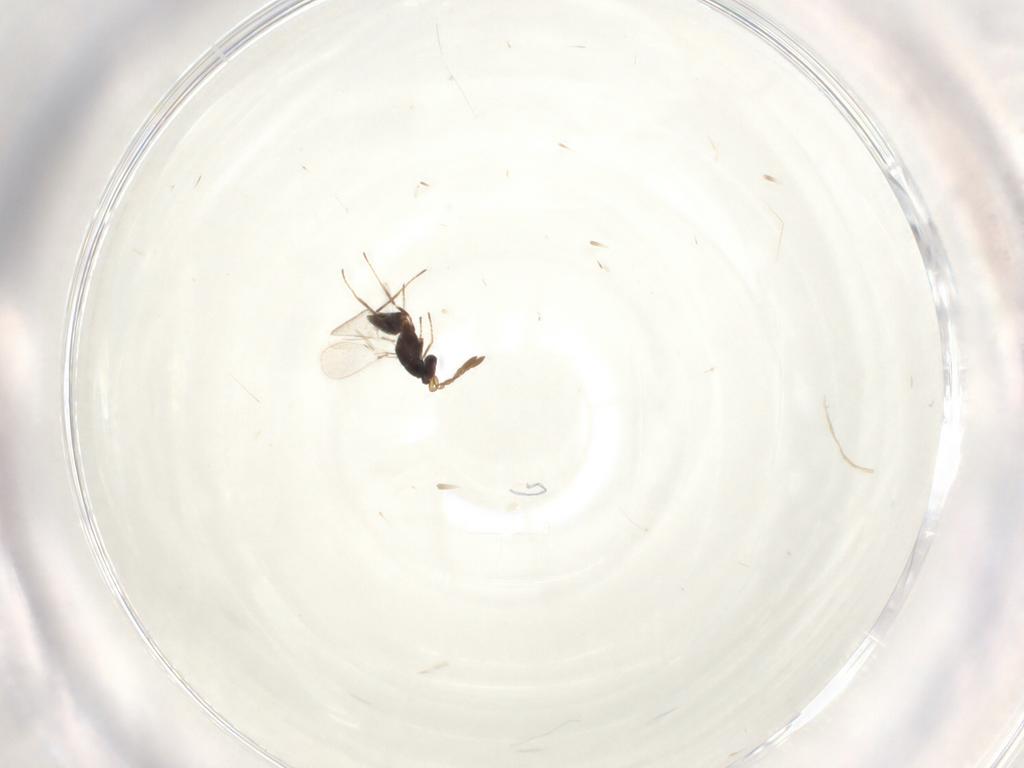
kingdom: Animalia
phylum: Arthropoda
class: Insecta
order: Hymenoptera
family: Mymaridae
